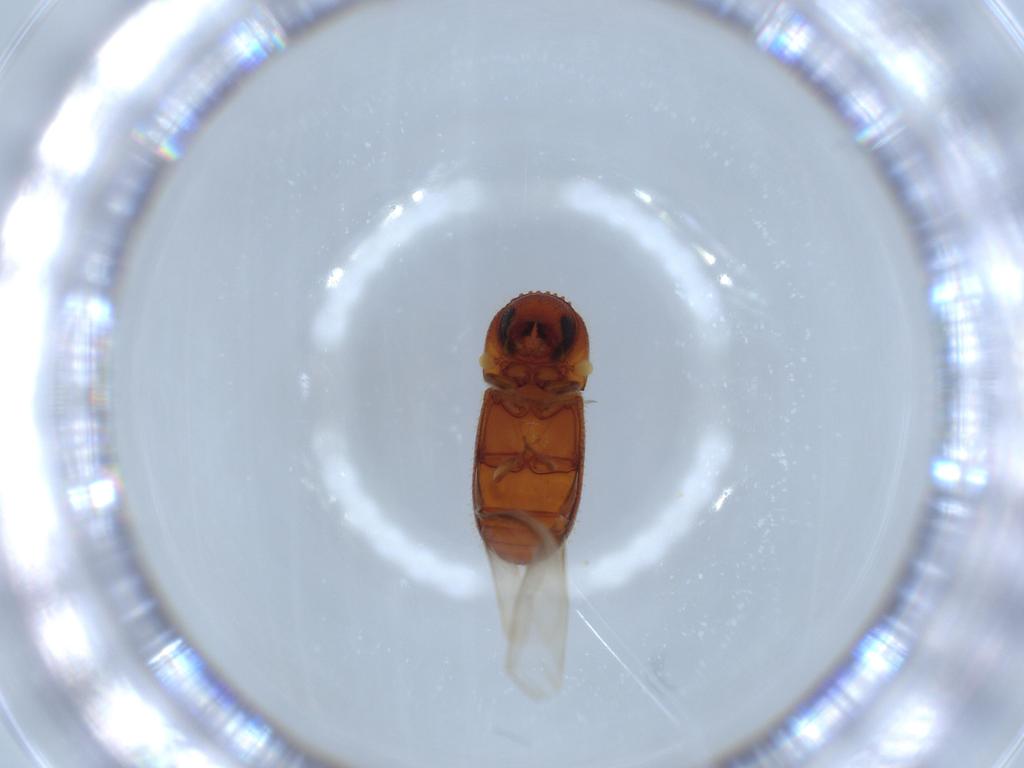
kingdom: Animalia
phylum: Arthropoda
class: Insecta
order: Coleoptera
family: Curculionidae
